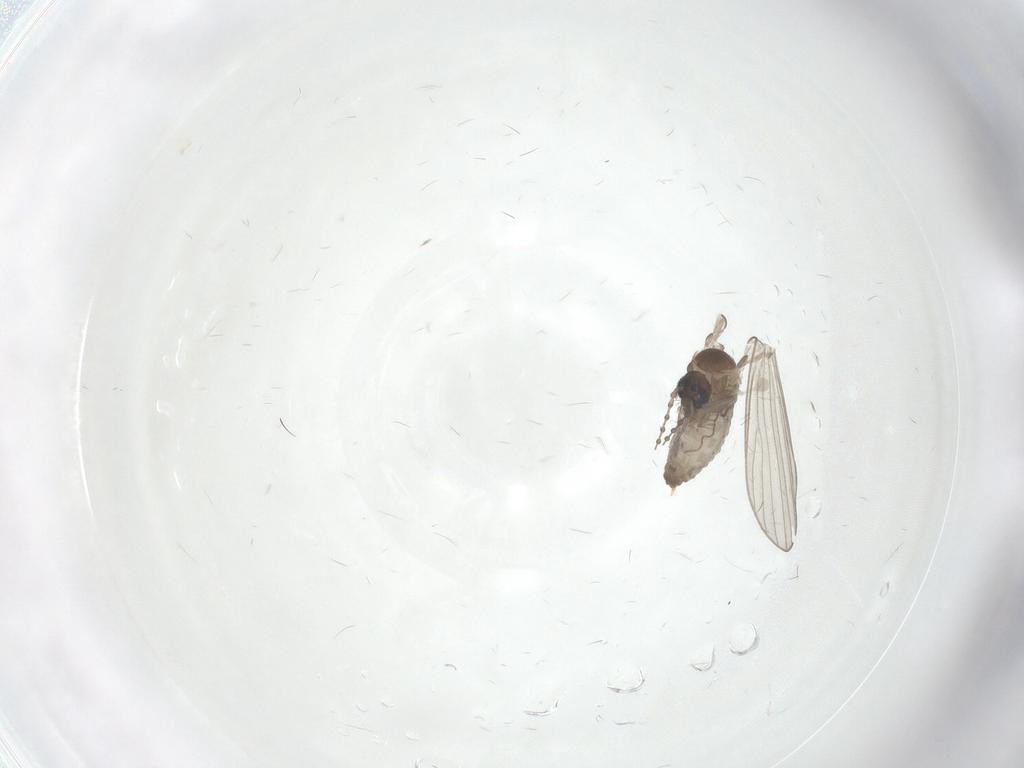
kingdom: Animalia
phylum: Arthropoda
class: Insecta
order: Diptera
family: Psychodidae
